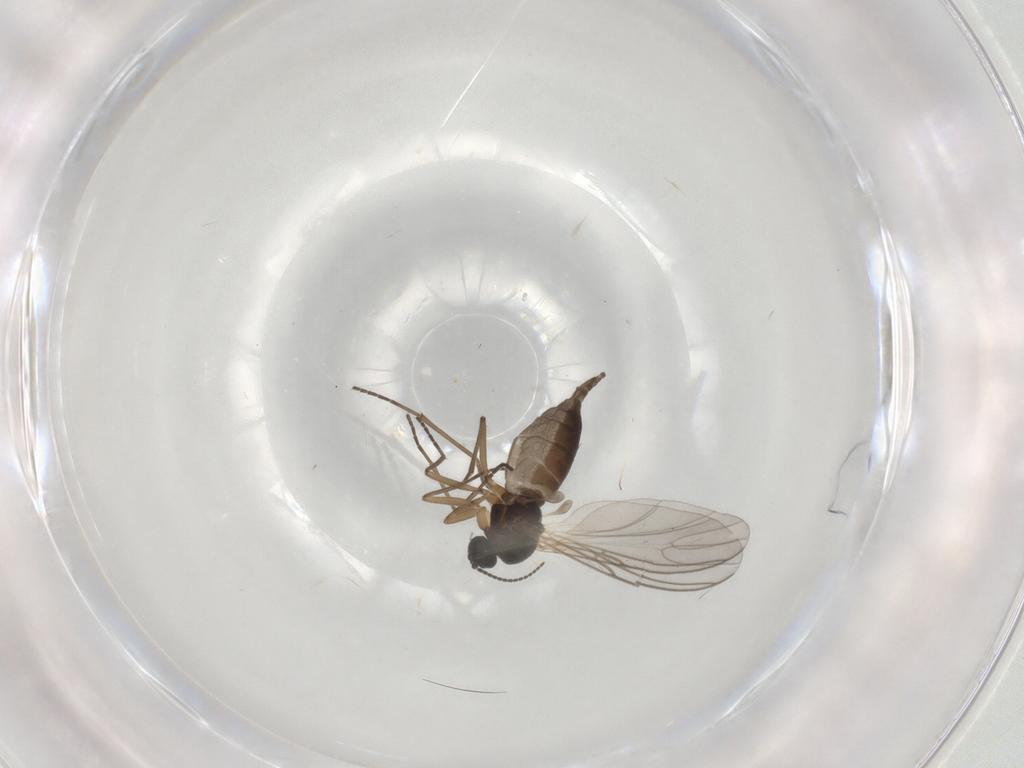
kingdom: Animalia
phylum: Arthropoda
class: Insecta
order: Diptera
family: Sciaridae
